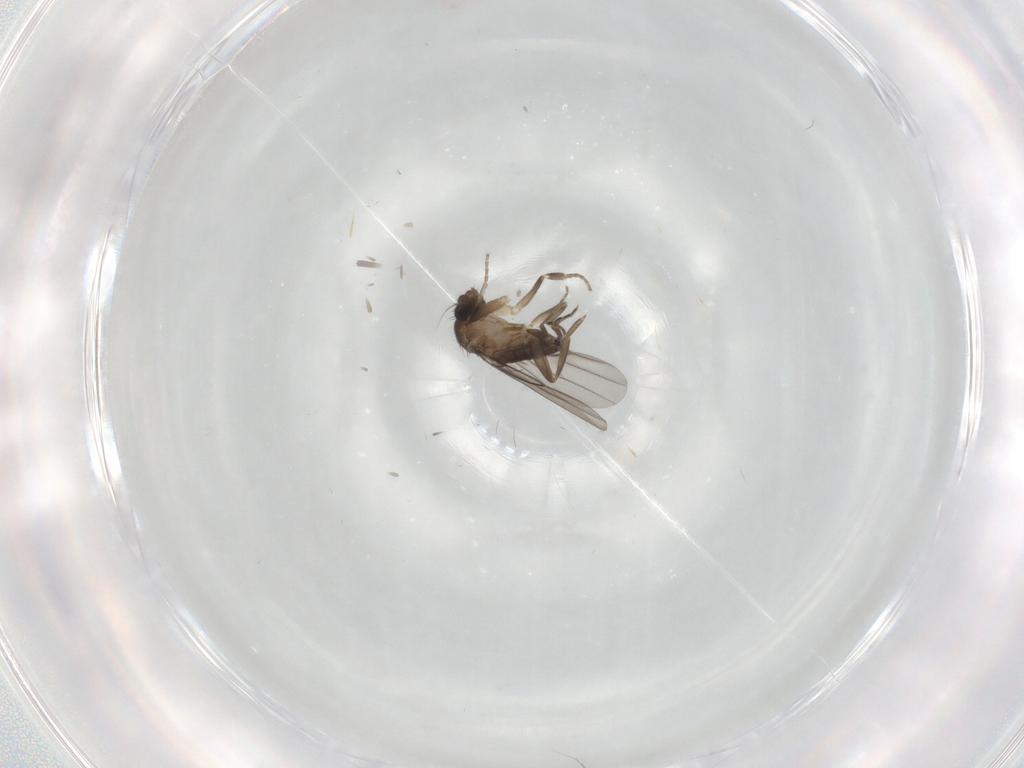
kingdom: Animalia
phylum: Arthropoda
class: Insecta
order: Diptera
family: Phoridae
